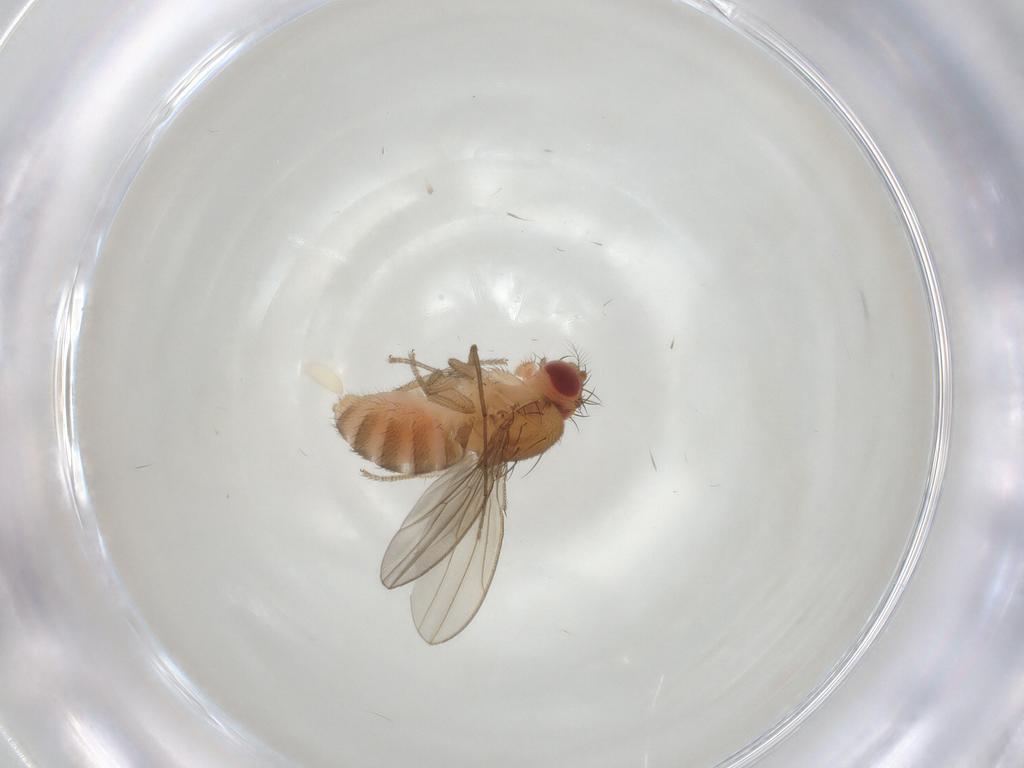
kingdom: Animalia
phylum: Arthropoda
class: Insecta
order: Diptera
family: Drosophilidae
